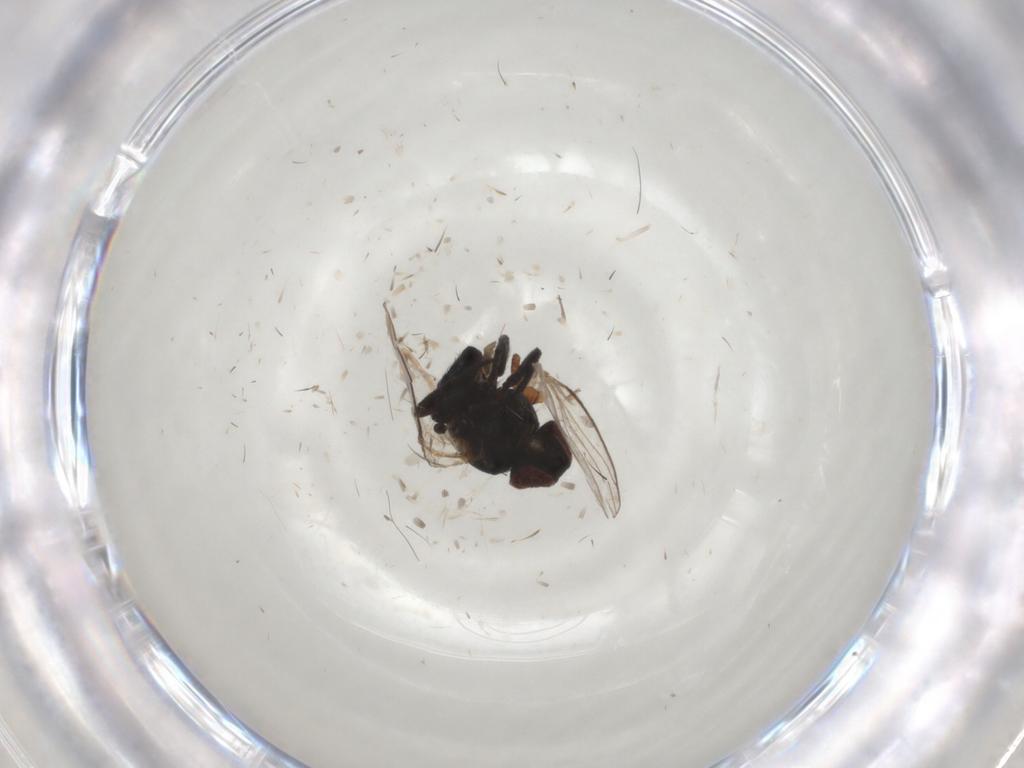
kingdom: Animalia
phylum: Arthropoda
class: Insecta
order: Diptera
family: Agromyzidae
